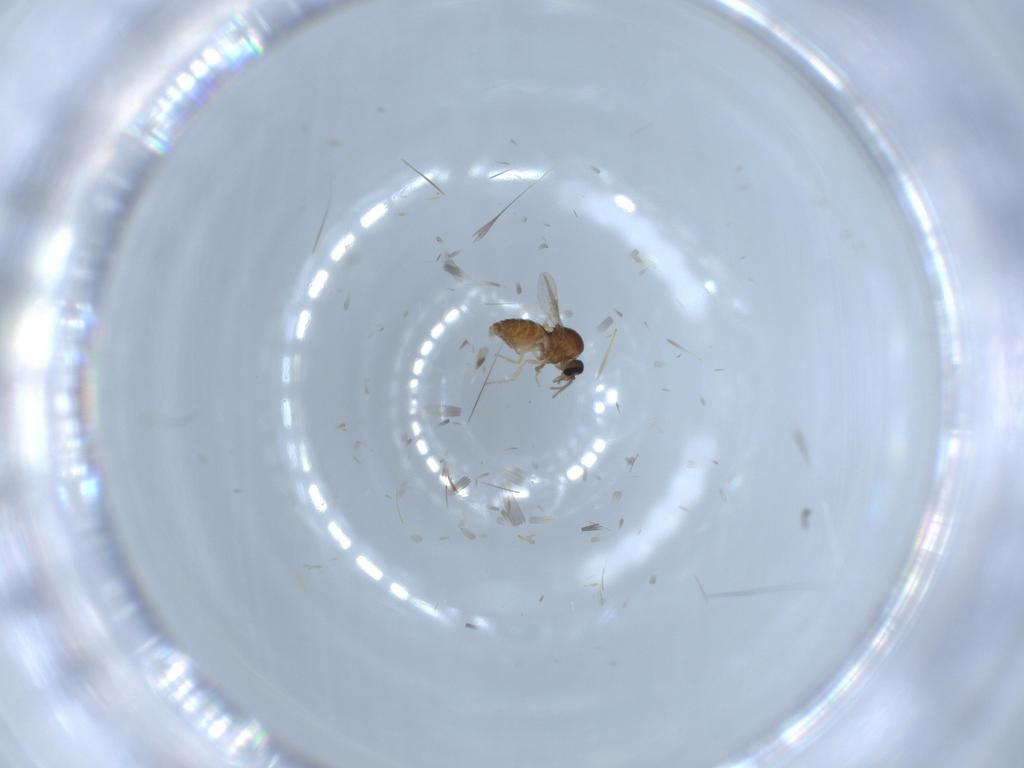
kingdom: Animalia
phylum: Arthropoda
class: Insecta
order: Diptera
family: Ceratopogonidae
